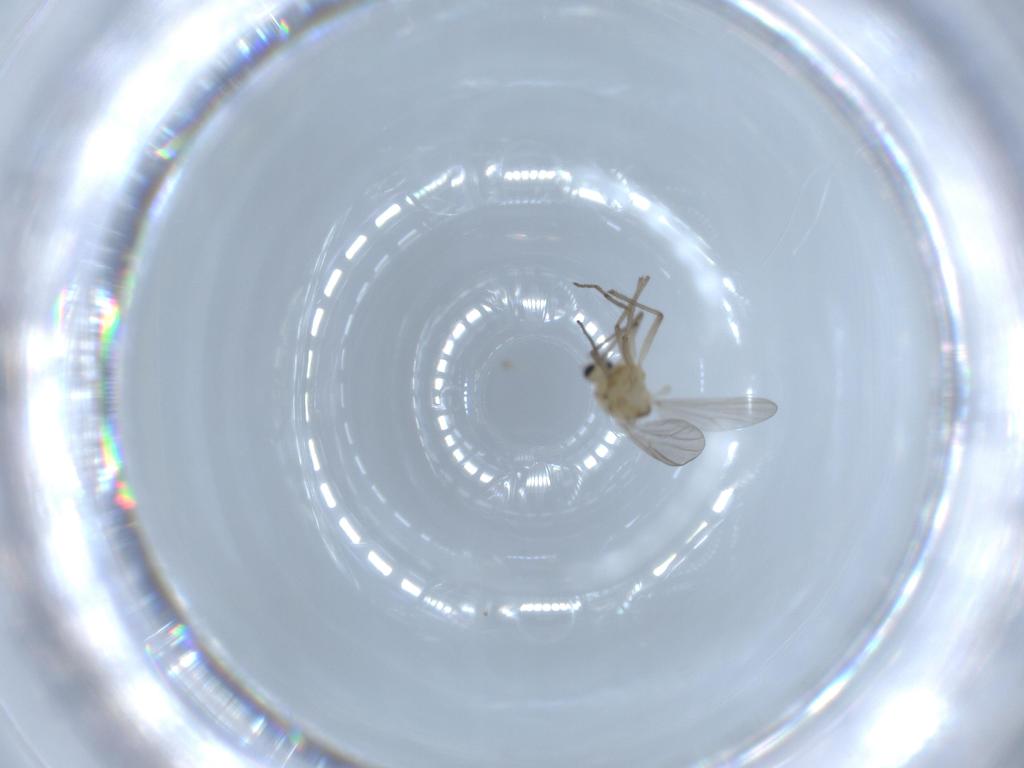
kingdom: Animalia
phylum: Arthropoda
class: Insecta
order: Diptera
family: Chironomidae
